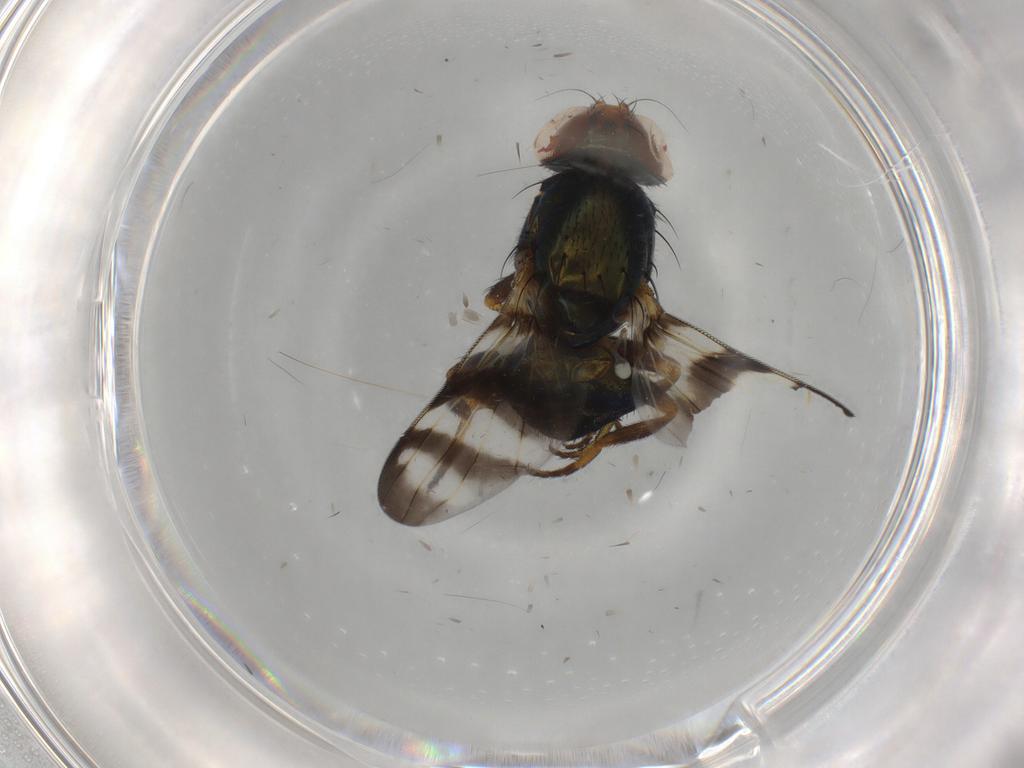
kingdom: Animalia
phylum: Arthropoda
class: Insecta
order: Diptera
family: Ulidiidae
